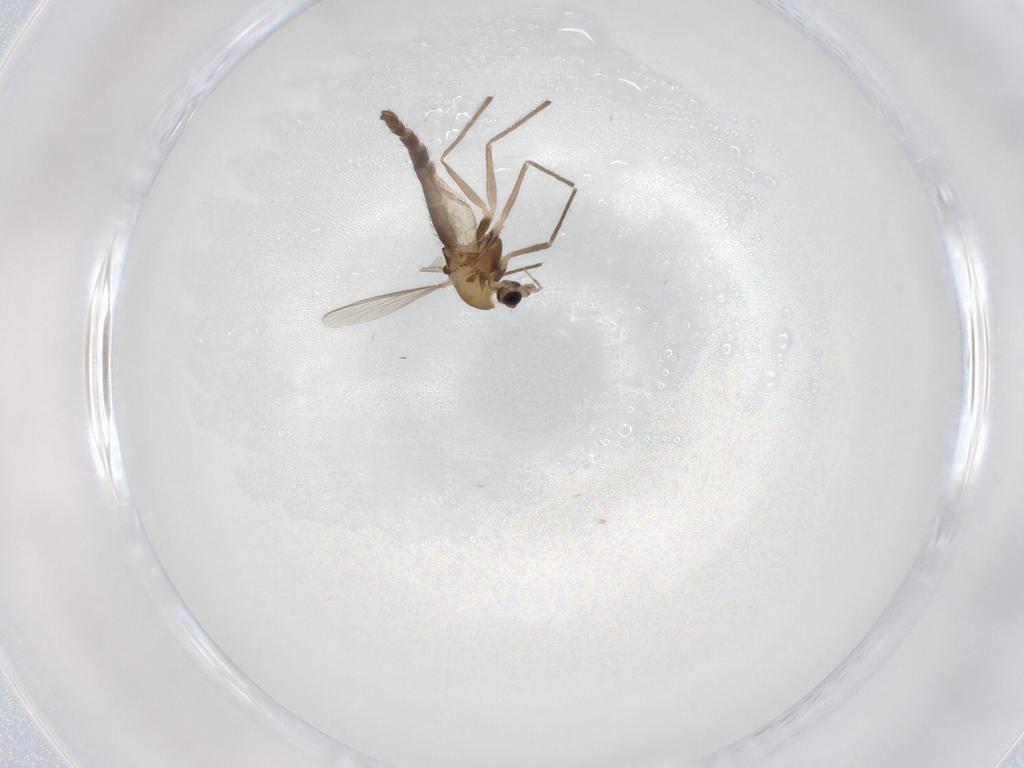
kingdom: Animalia
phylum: Arthropoda
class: Insecta
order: Diptera
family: Chironomidae
